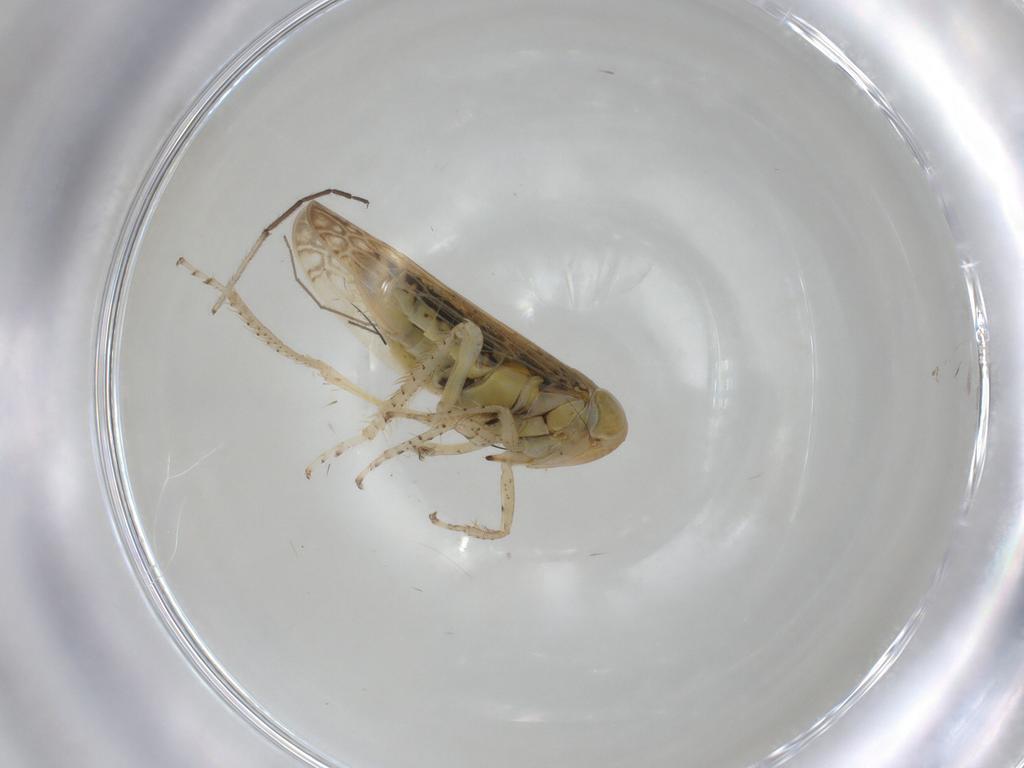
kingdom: Animalia
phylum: Arthropoda
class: Insecta
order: Hemiptera
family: Cicadellidae
